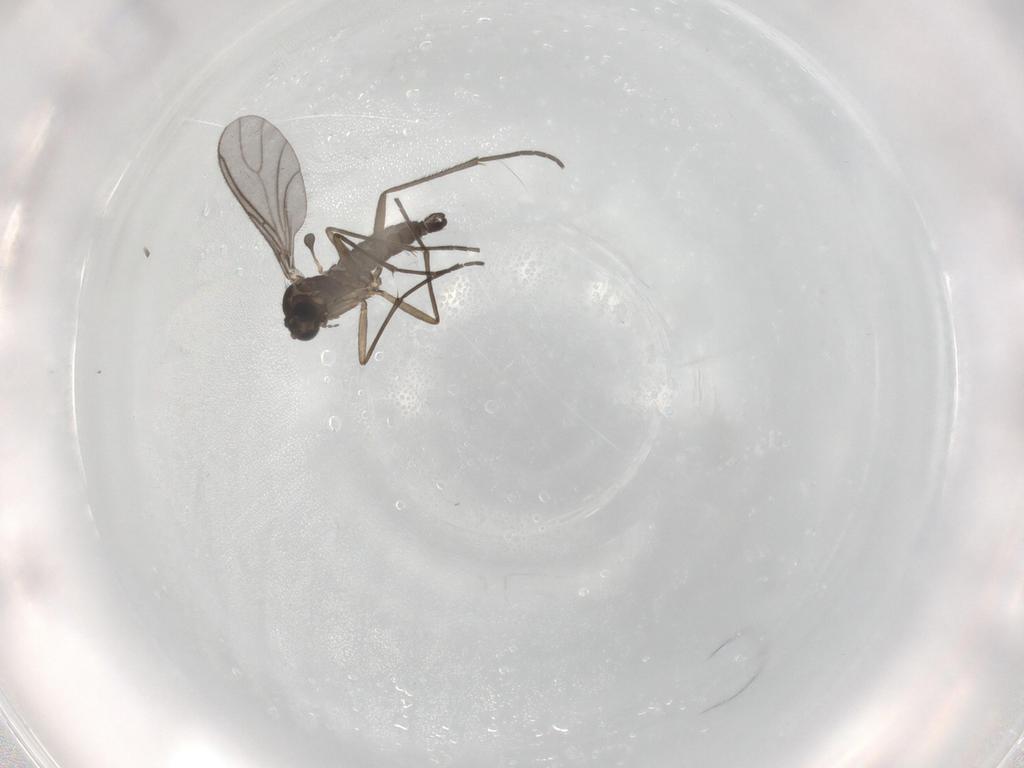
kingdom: Animalia
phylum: Arthropoda
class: Insecta
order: Diptera
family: Sciaridae
